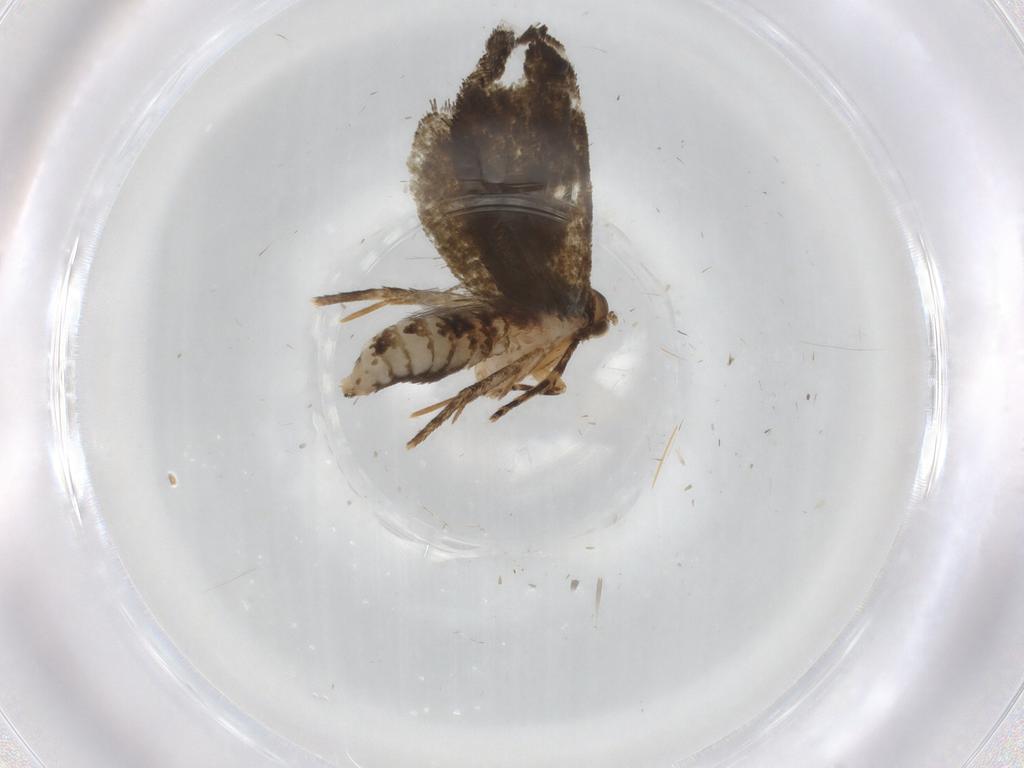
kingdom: Animalia
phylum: Arthropoda
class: Insecta
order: Lepidoptera
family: Crambidae
